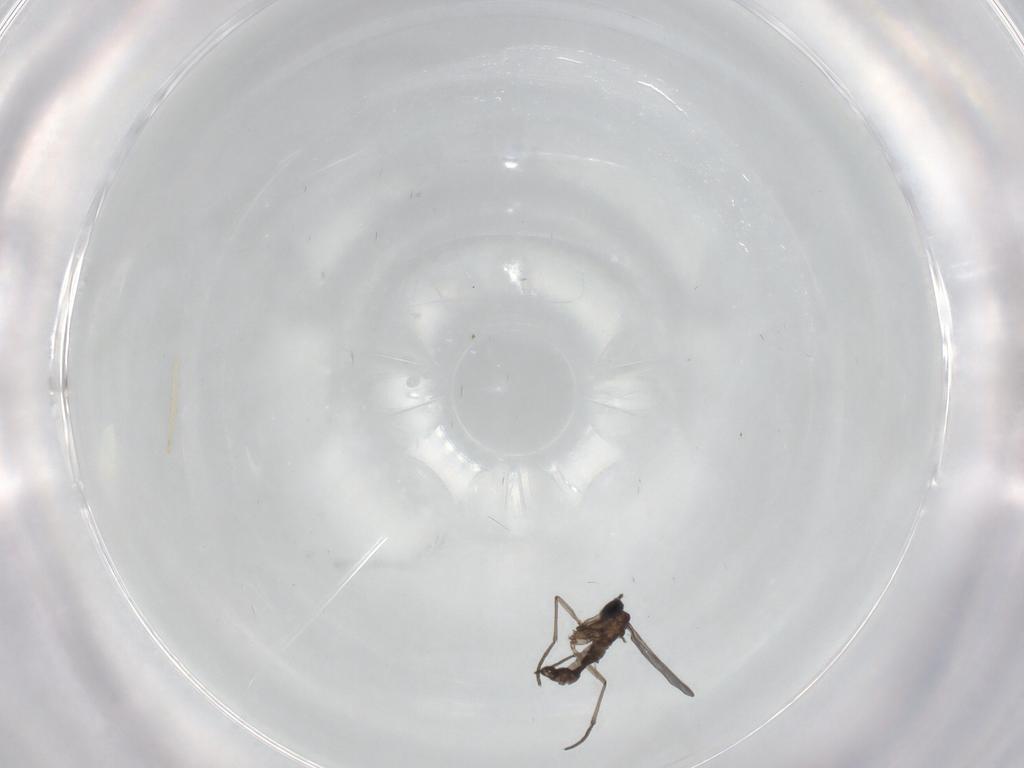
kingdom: Animalia
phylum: Arthropoda
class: Insecta
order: Diptera
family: Sciaridae
